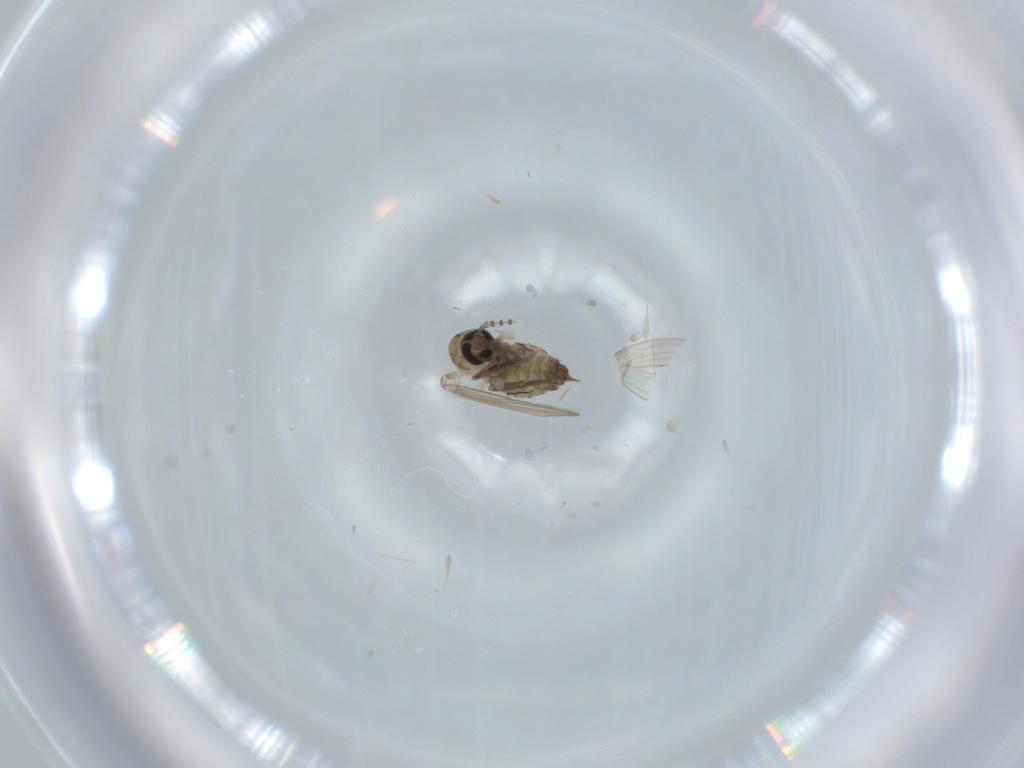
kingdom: Animalia
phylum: Arthropoda
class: Insecta
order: Diptera
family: Psychodidae
